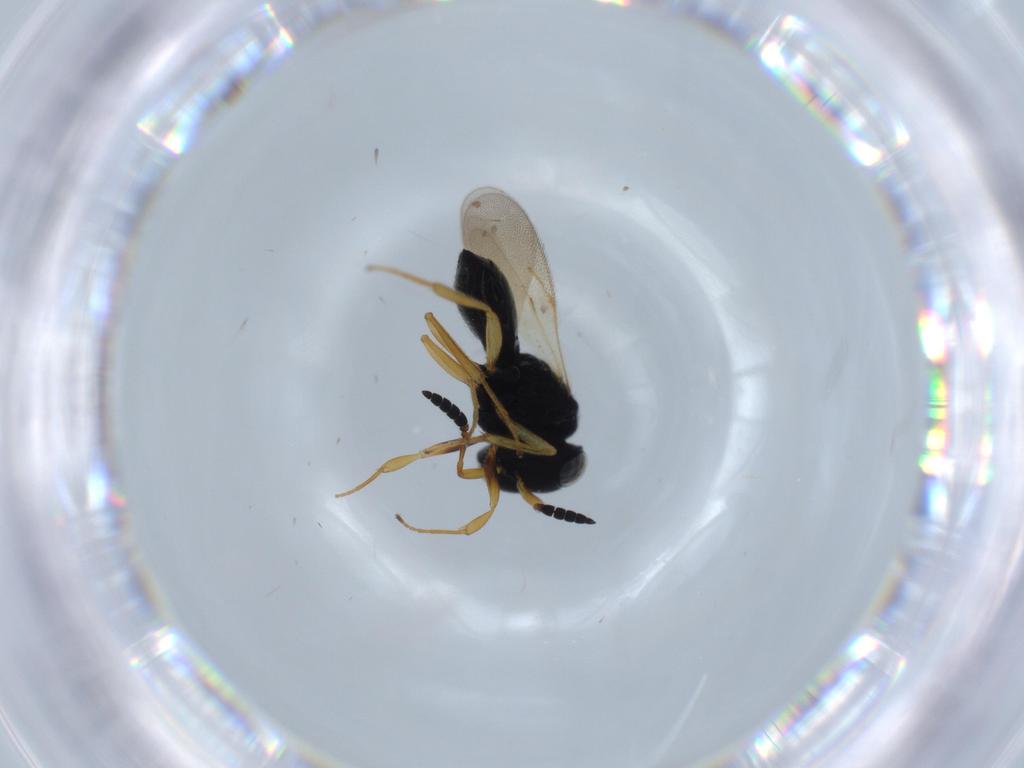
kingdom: Animalia
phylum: Arthropoda
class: Insecta
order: Hymenoptera
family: Scelionidae
